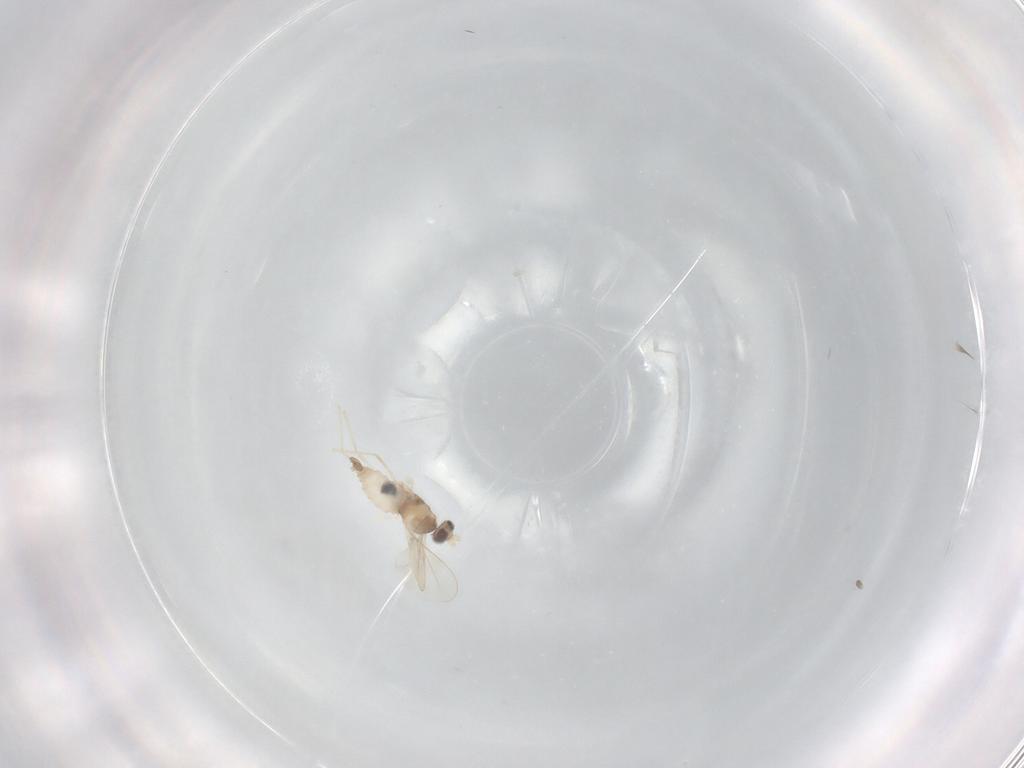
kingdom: Animalia
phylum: Arthropoda
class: Insecta
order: Diptera
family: Cecidomyiidae
